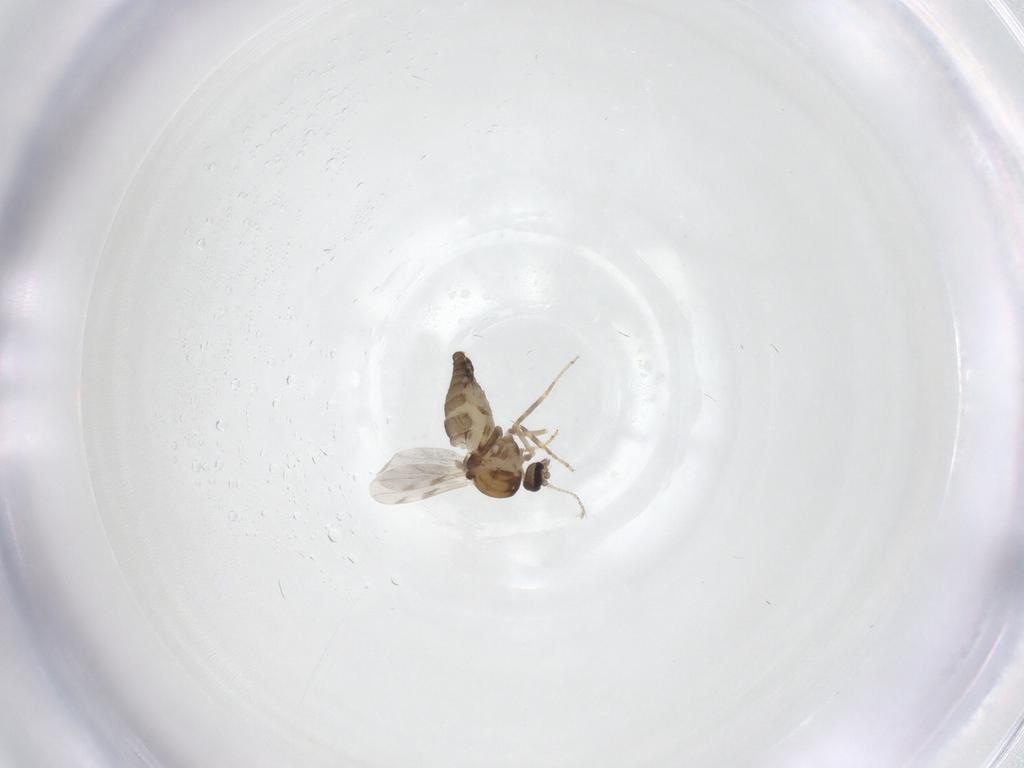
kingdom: Animalia
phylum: Arthropoda
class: Insecta
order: Diptera
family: Ceratopogonidae
